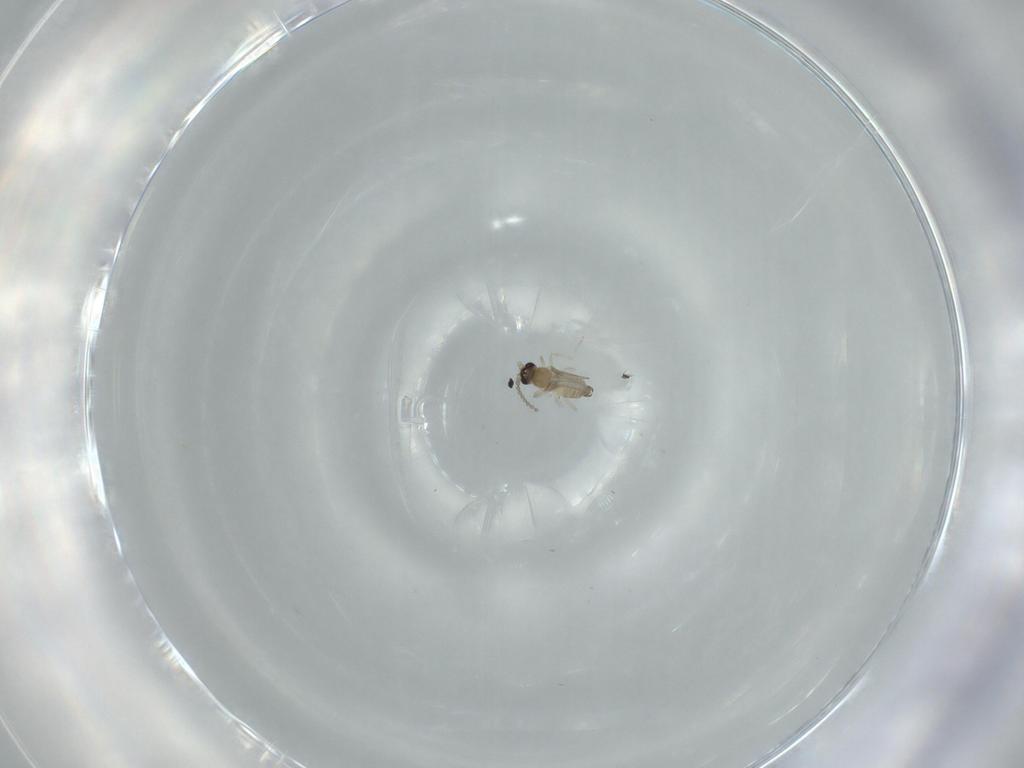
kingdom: Animalia
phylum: Arthropoda
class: Insecta
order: Diptera
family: Cecidomyiidae
